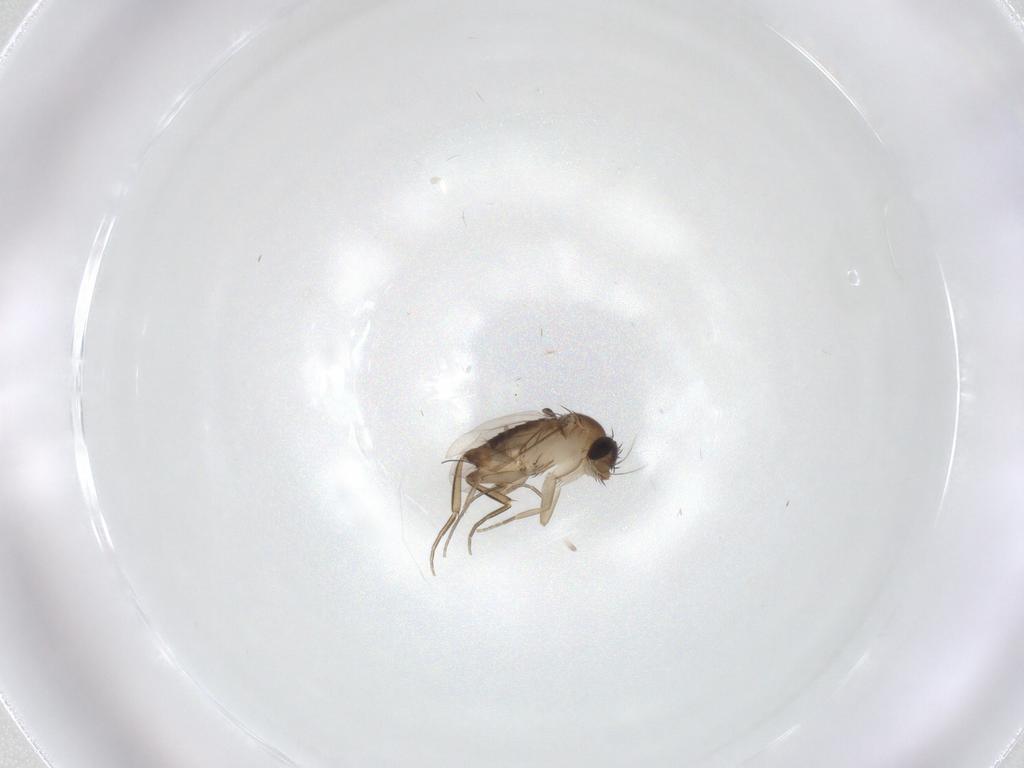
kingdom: Animalia
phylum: Arthropoda
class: Insecta
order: Diptera
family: Phoridae
